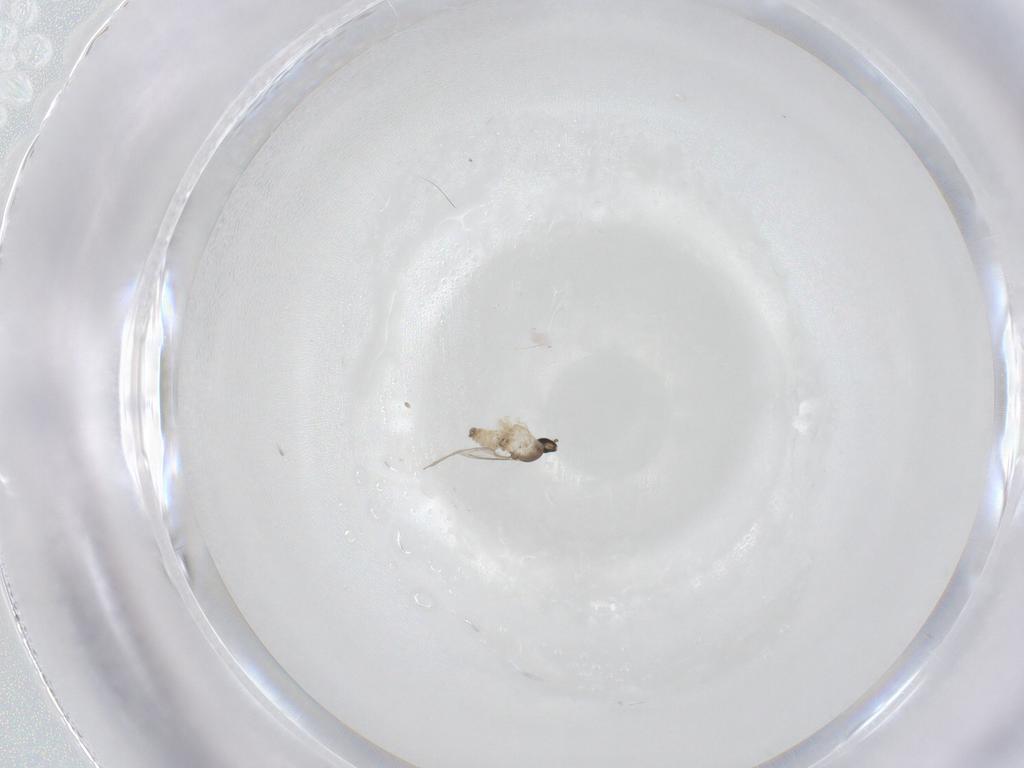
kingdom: Animalia
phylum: Arthropoda
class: Insecta
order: Diptera
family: Cecidomyiidae
